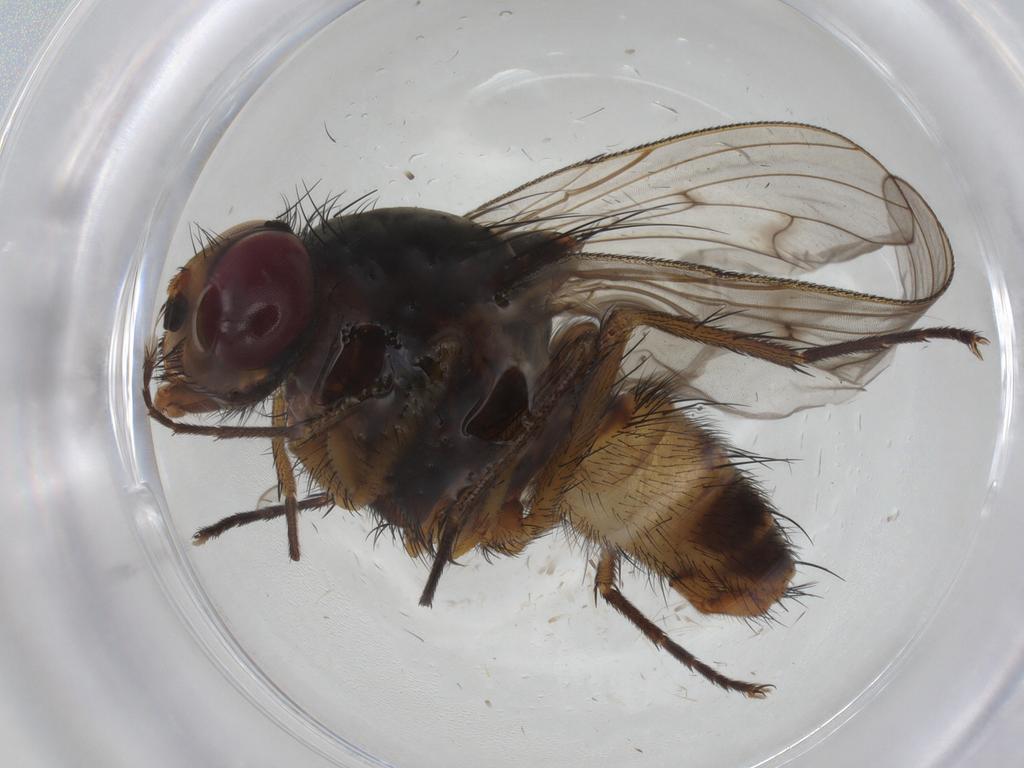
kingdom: Animalia
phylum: Arthropoda
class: Insecta
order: Diptera
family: Anthomyiidae
